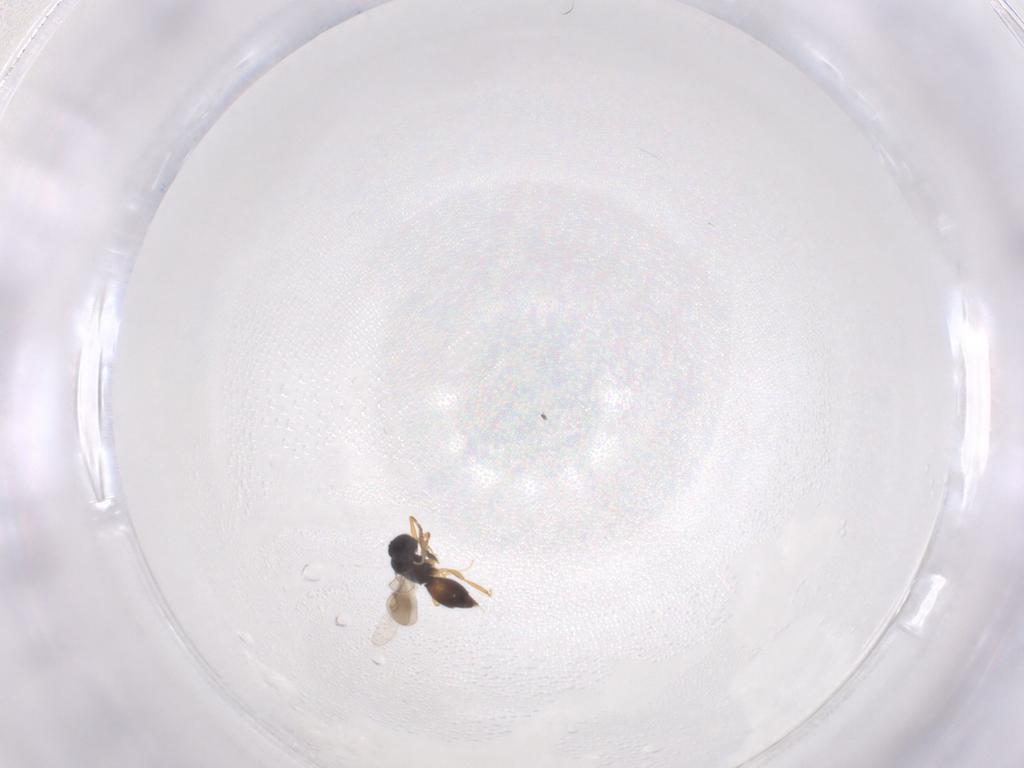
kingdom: Animalia
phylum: Arthropoda
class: Insecta
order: Hymenoptera
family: Ceraphronidae
